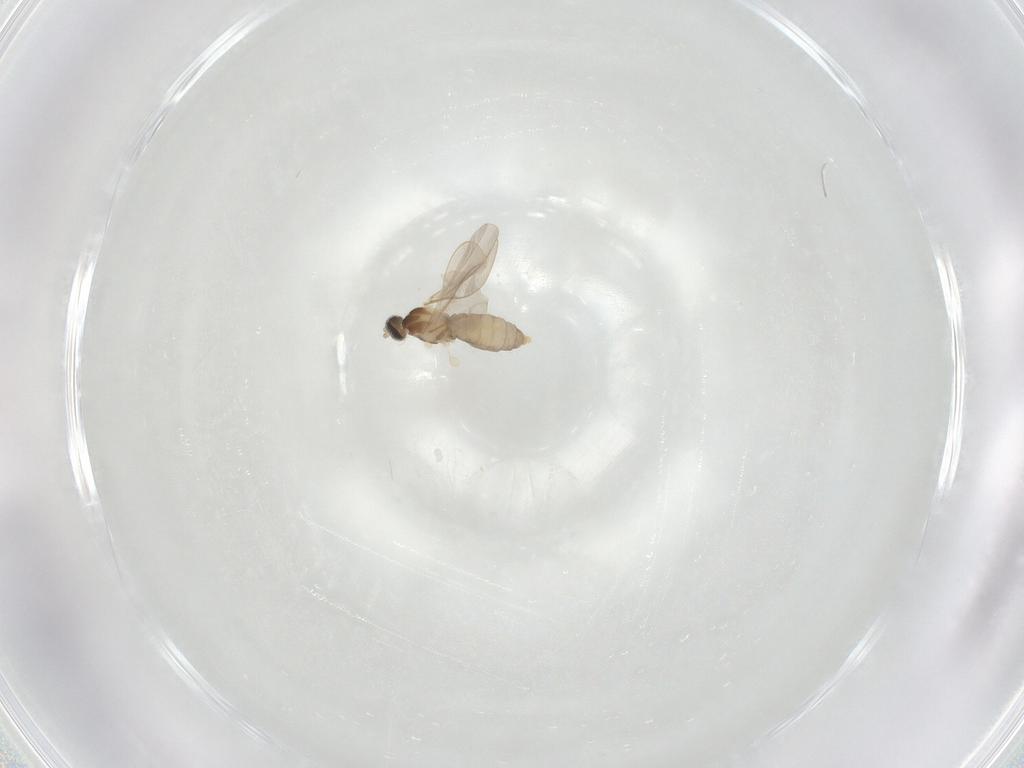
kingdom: Animalia
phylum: Arthropoda
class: Insecta
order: Diptera
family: Cecidomyiidae
